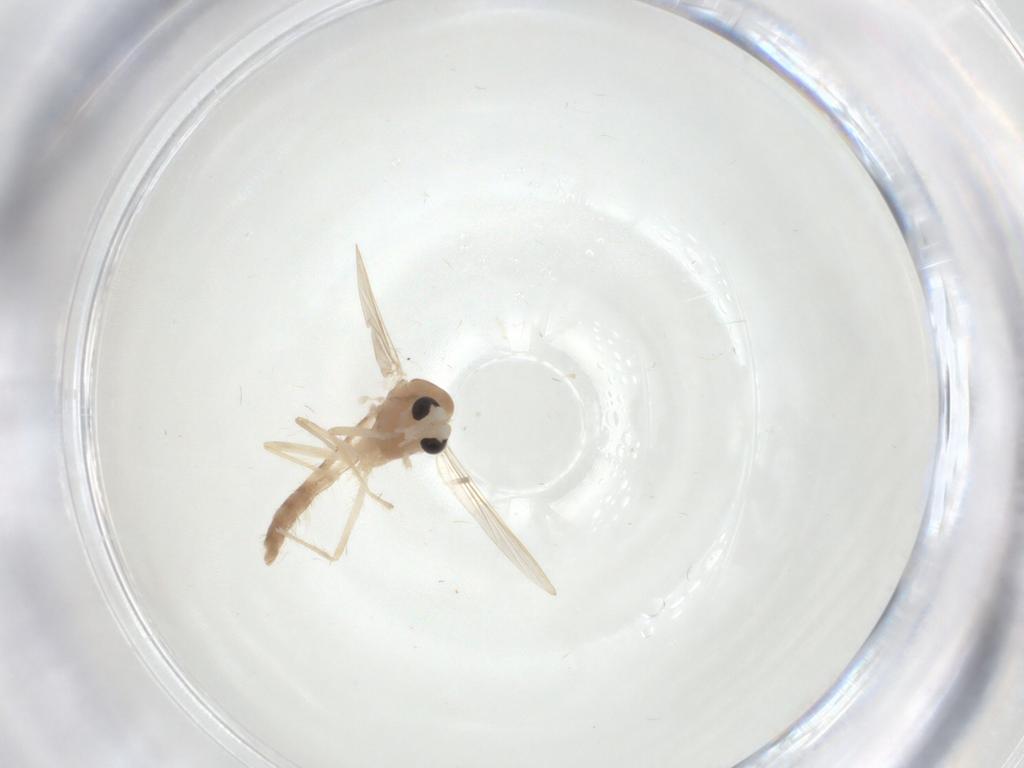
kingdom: Animalia
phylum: Arthropoda
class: Insecta
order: Diptera
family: Chironomidae
